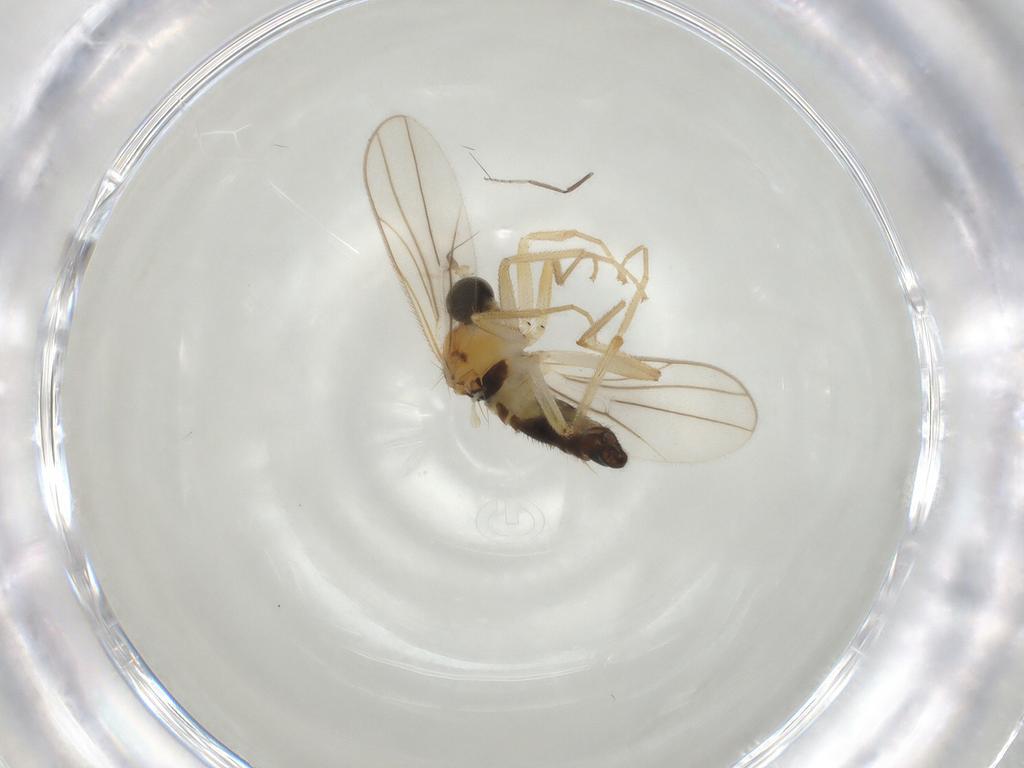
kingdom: Animalia
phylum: Arthropoda
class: Insecta
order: Diptera
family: Hybotidae
